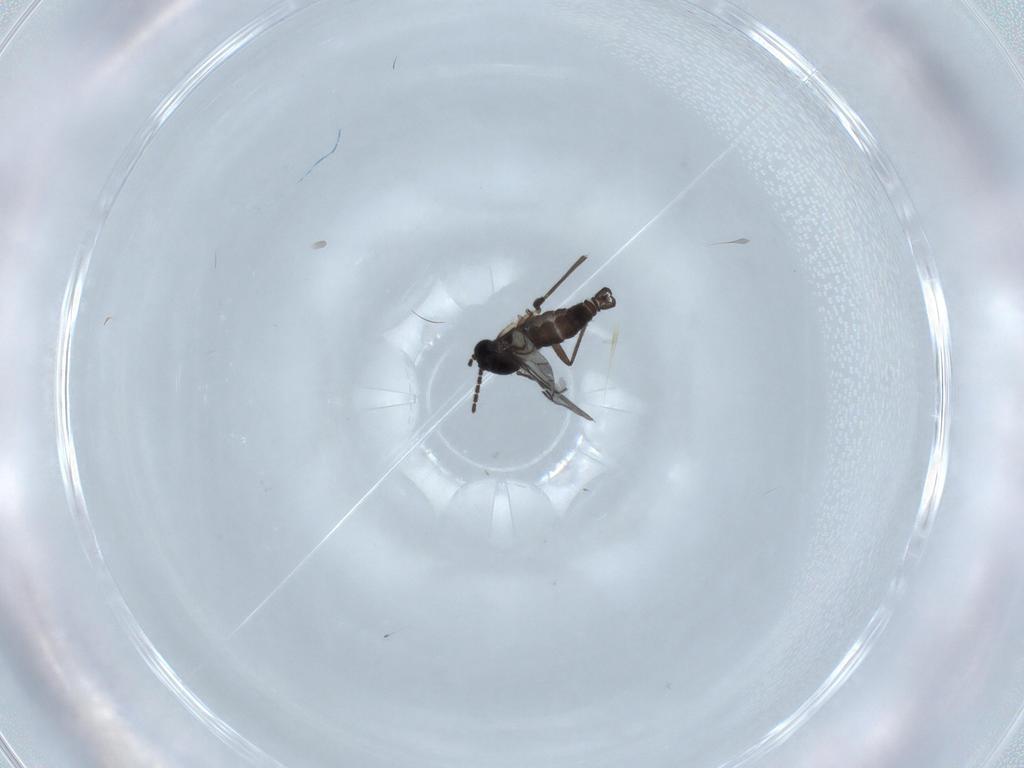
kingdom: Animalia
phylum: Arthropoda
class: Insecta
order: Diptera
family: Sciaridae
